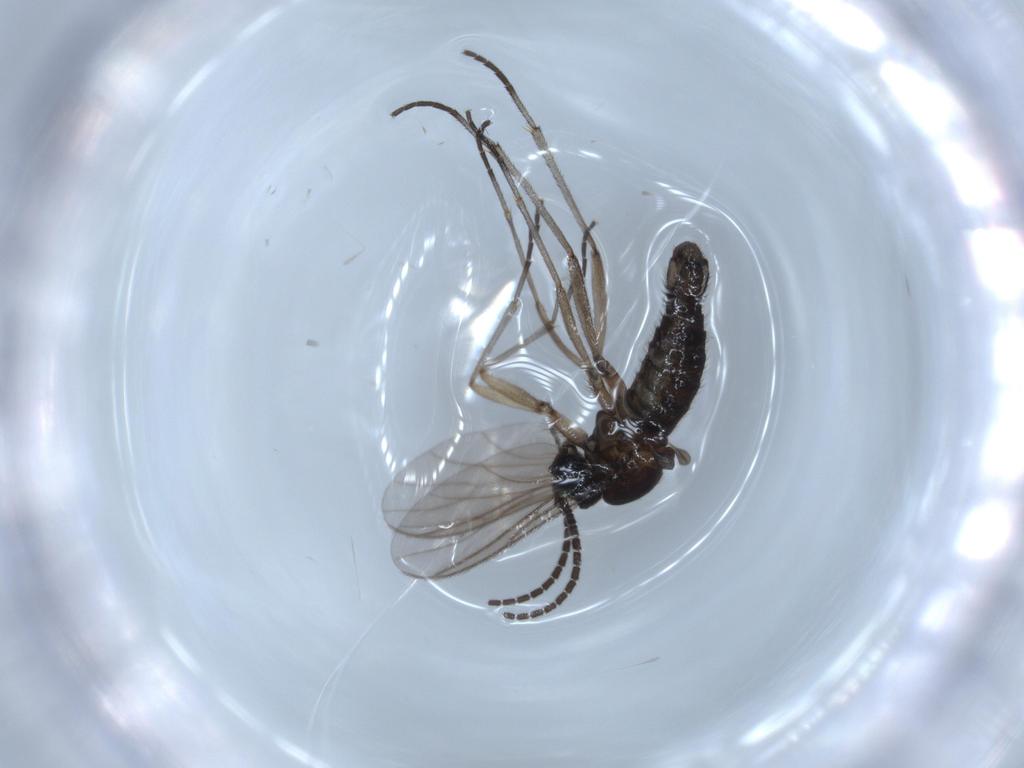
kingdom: Animalia
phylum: Arthropoda
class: Insecta
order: Diptera
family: Sciaridae
